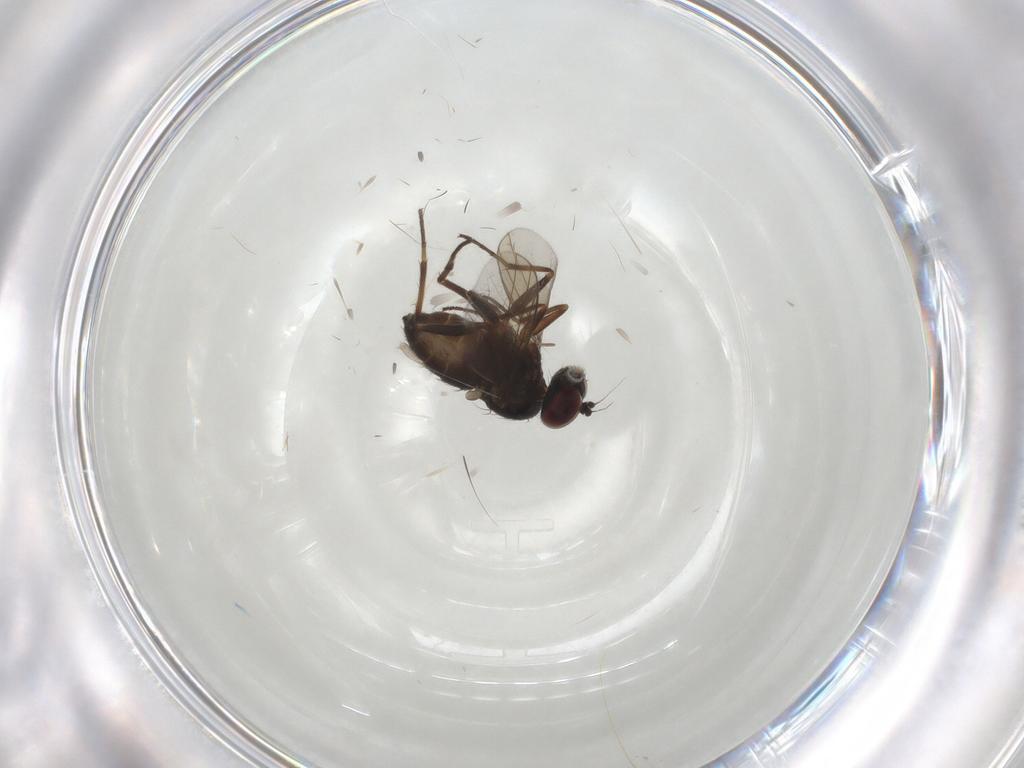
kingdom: Animalia
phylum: Arthropoda
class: Insecta
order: Diptera
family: Dolichopodidae
